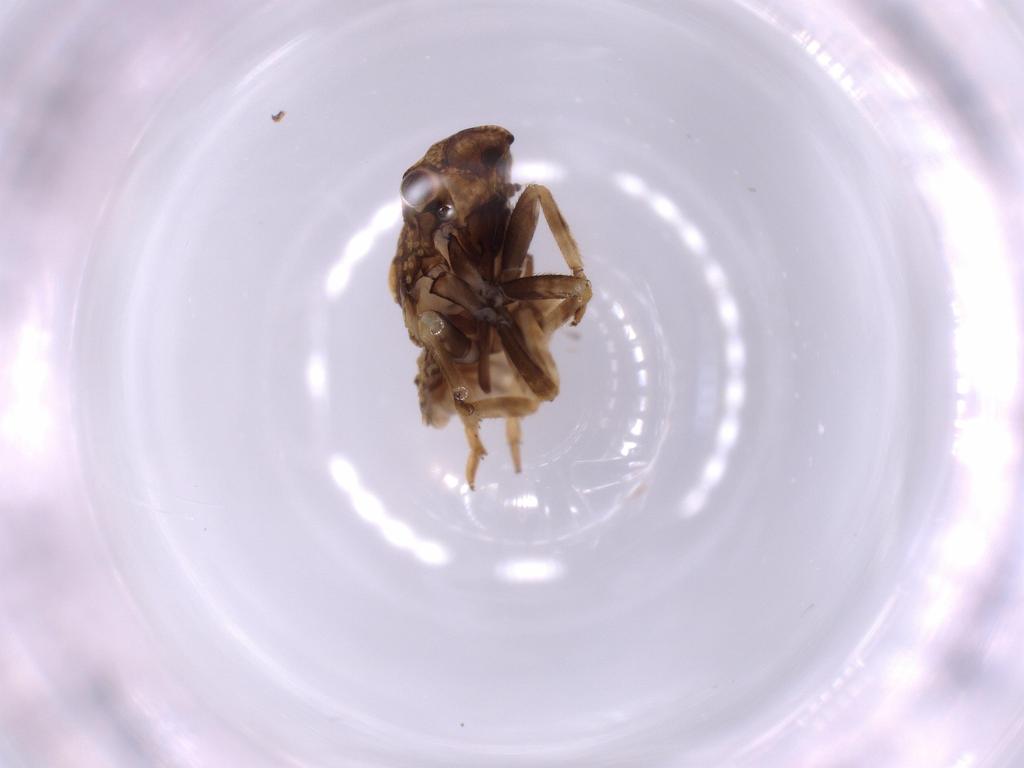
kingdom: Animalia
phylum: Arthropoda
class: Insecta
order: Hemiptera
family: Fulgoroidea_incertae_sedis
